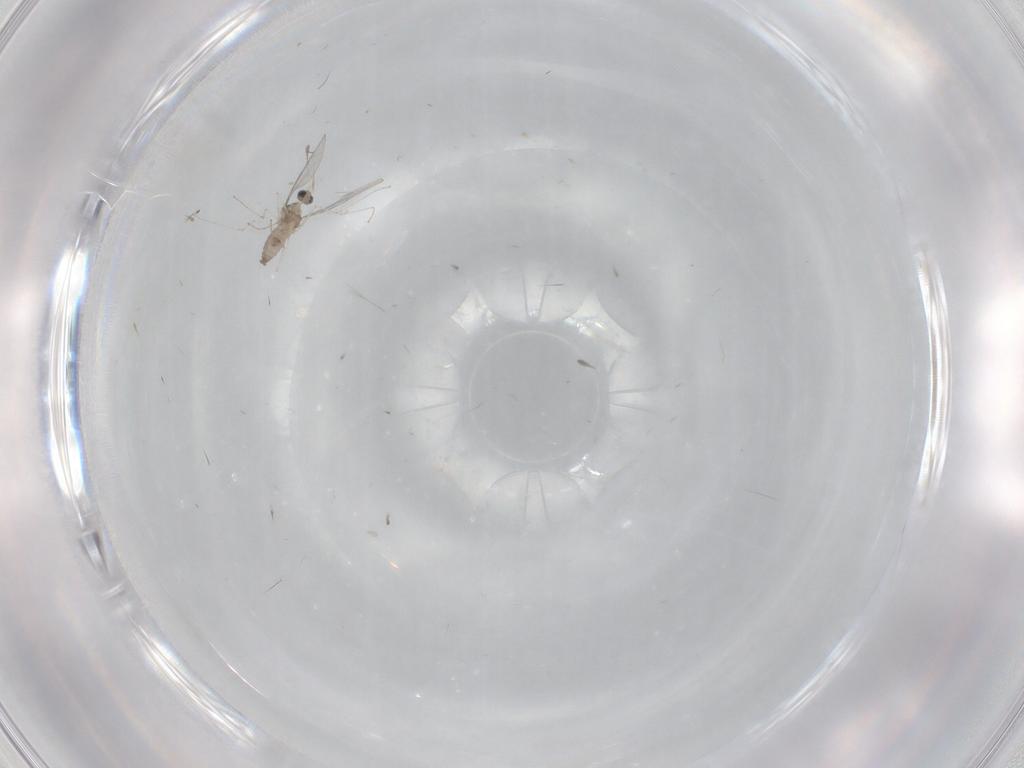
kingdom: Animalia
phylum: Arthropoda
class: Insecta
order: Diptera
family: Cecidomyiidae
